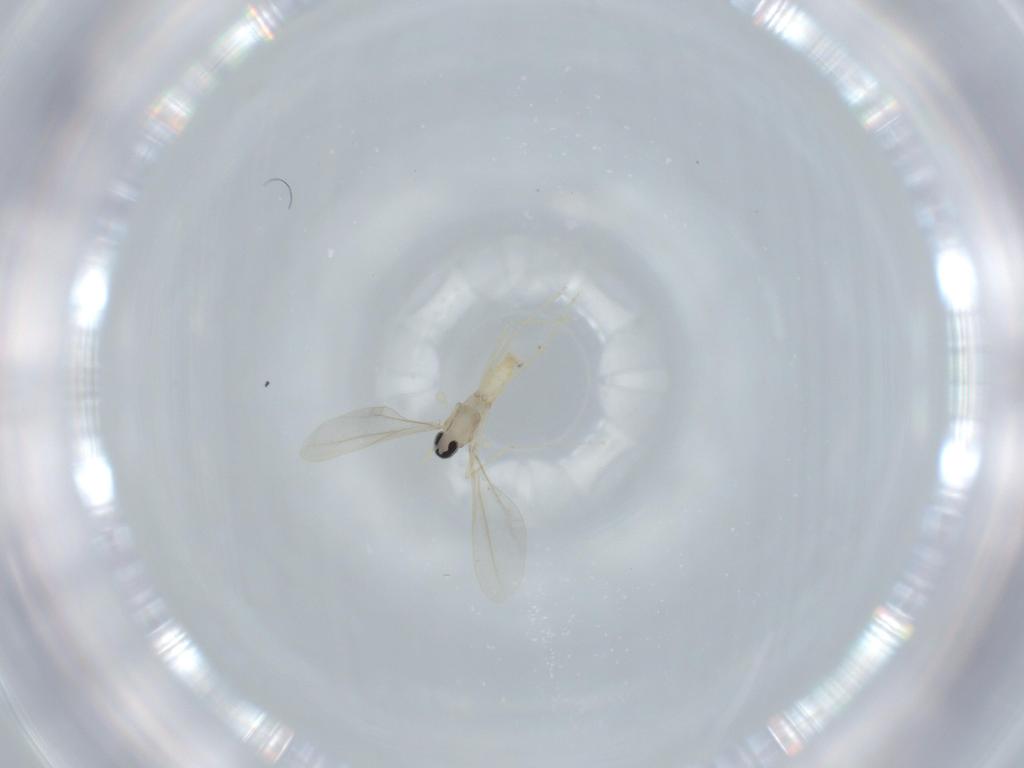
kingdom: Animalia
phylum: Arthropoda
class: Insecta
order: Diptera
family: Cecidomyiidae
